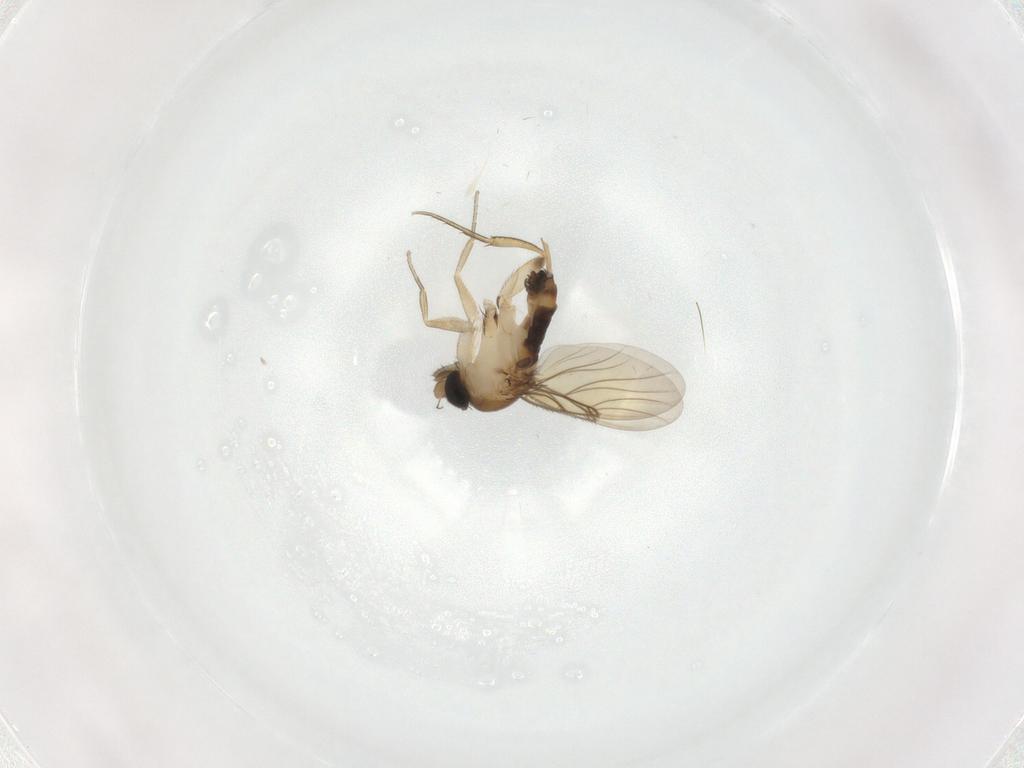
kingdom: Animalia
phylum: Arthropoda
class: Insecta
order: Diptera
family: Phoridae
